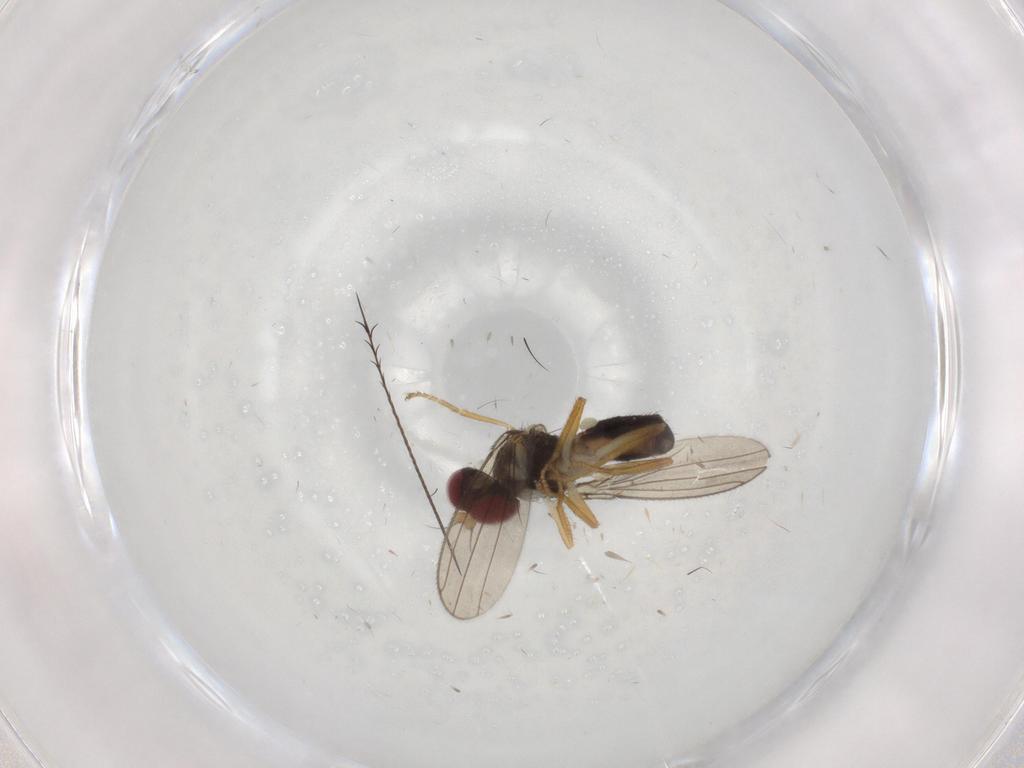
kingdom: Animalia
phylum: Arthropoda
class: Insecta
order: Diptera
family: Anthomyzidae
